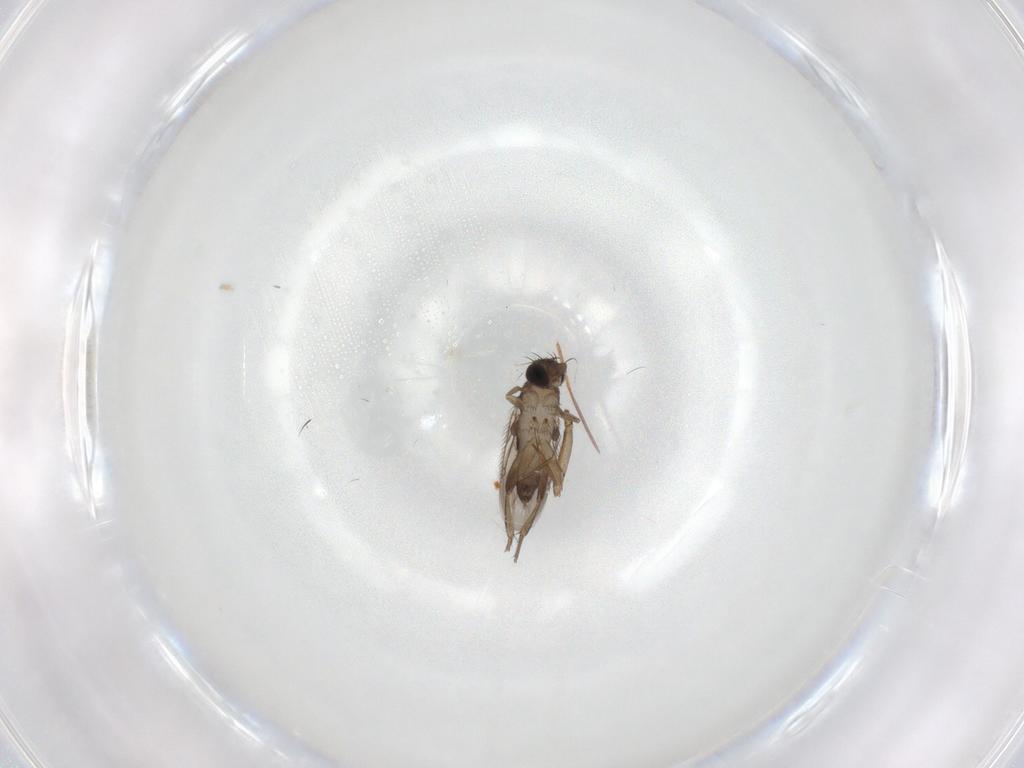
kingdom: Animalia
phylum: Arthropoda
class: Insecta
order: Diptera
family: Phoridae
